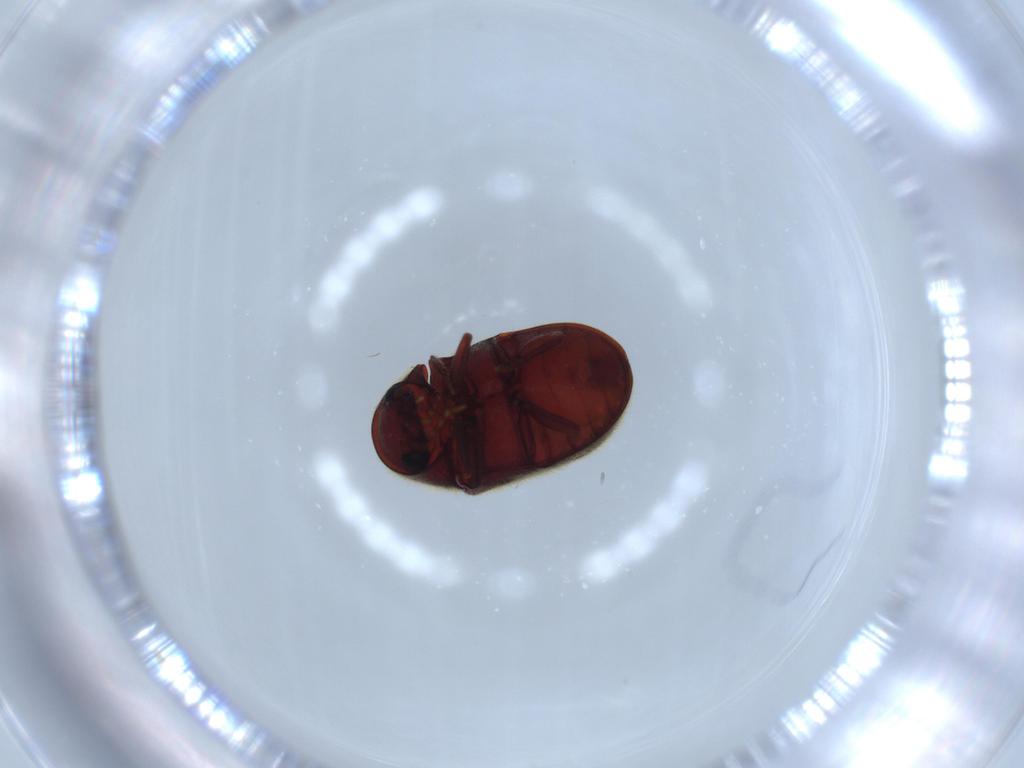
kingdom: Animalia
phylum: Arthropoda
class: Insecta
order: Coleoptera
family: Ptinidae
